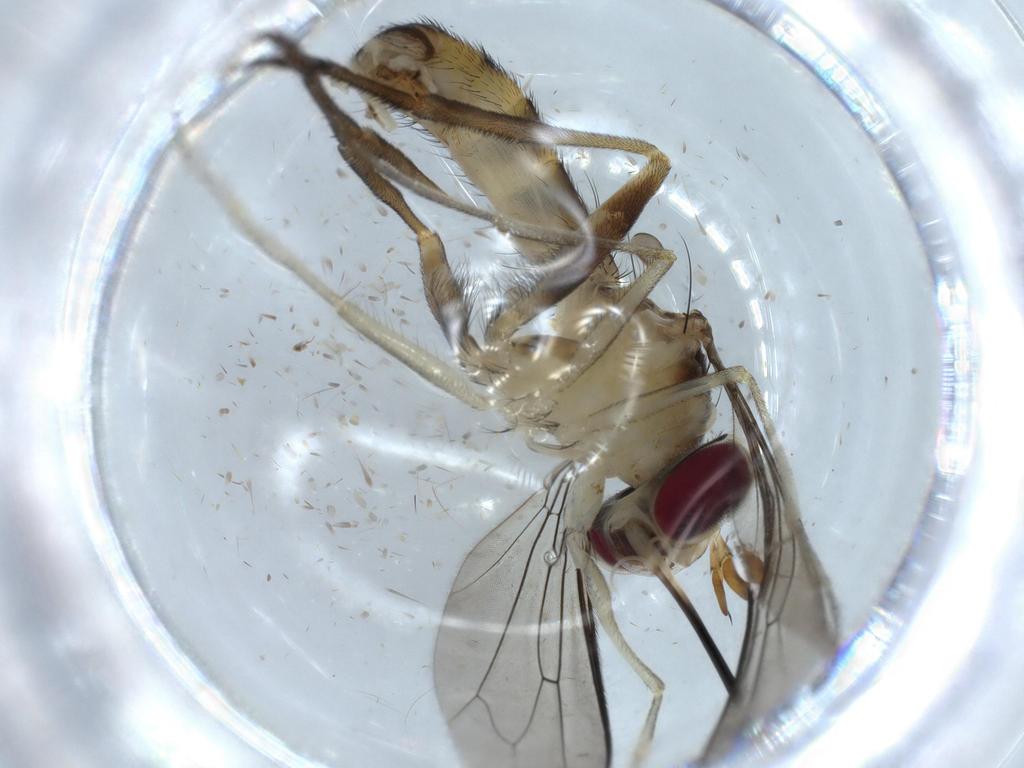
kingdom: Animalia
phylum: Arthropoda
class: Insecta
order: Diptera
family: Conopidae
